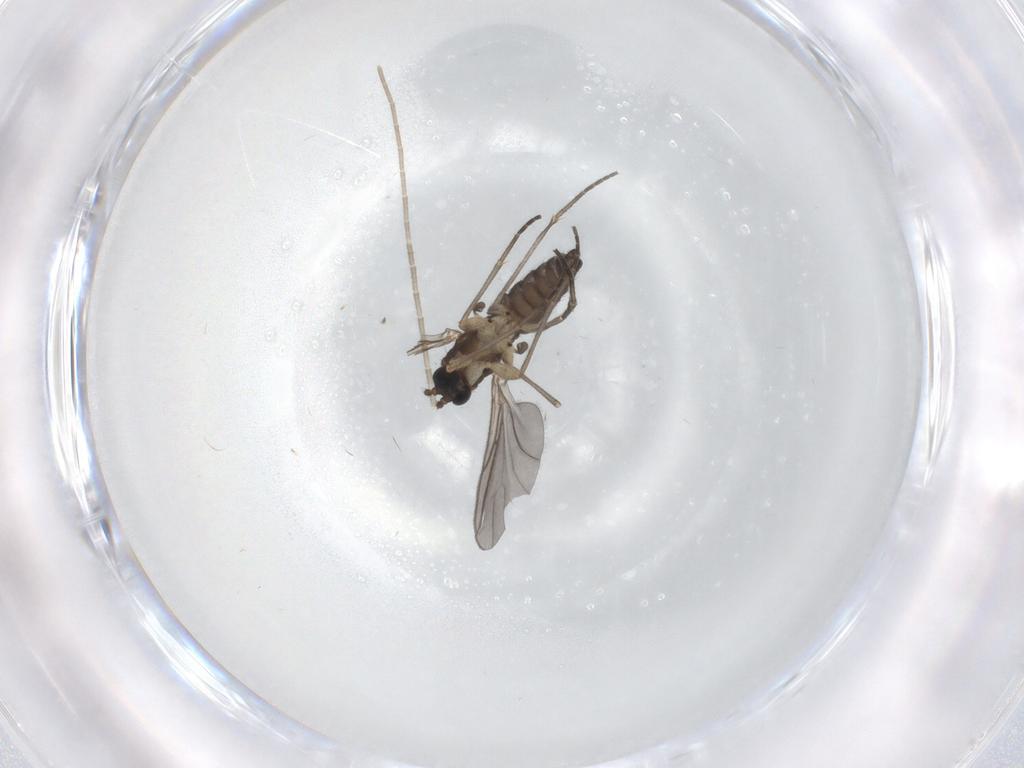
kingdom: Animalia
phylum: Arthropoda
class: Insecta
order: Diptera
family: Sciaridae
